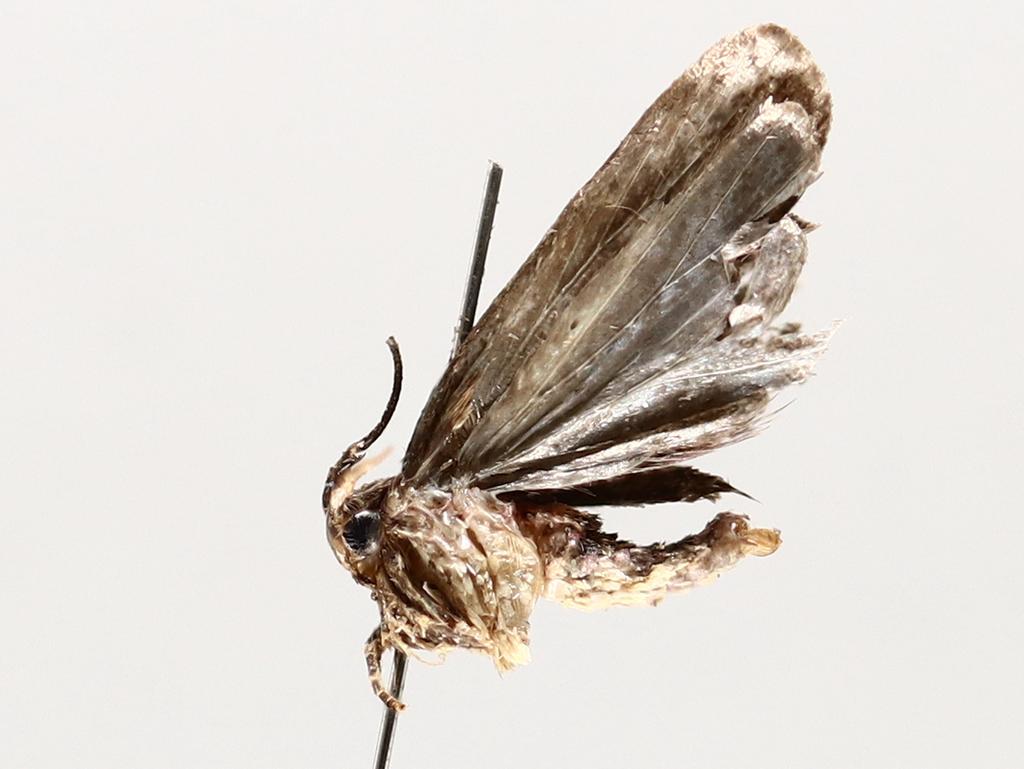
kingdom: Animalia
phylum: Arthropoda
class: Insecta
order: Diptera
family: Dolichopodidae
